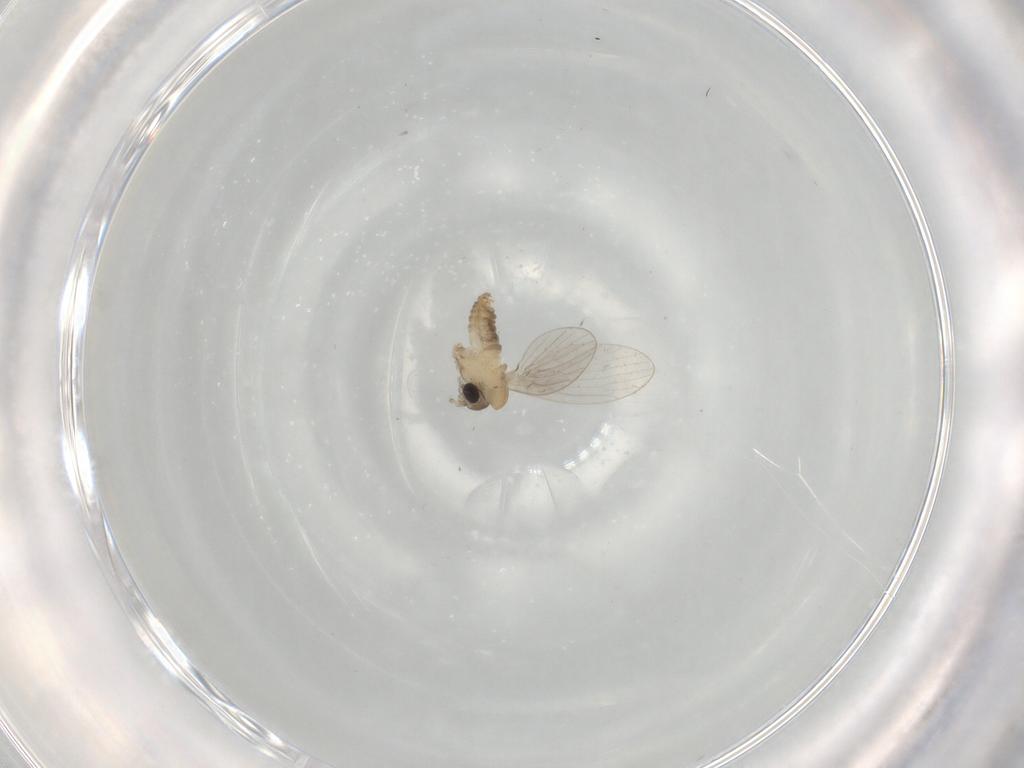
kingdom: Animalia
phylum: Arthropoda
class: Insecta
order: Diptera
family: Psychodidae
